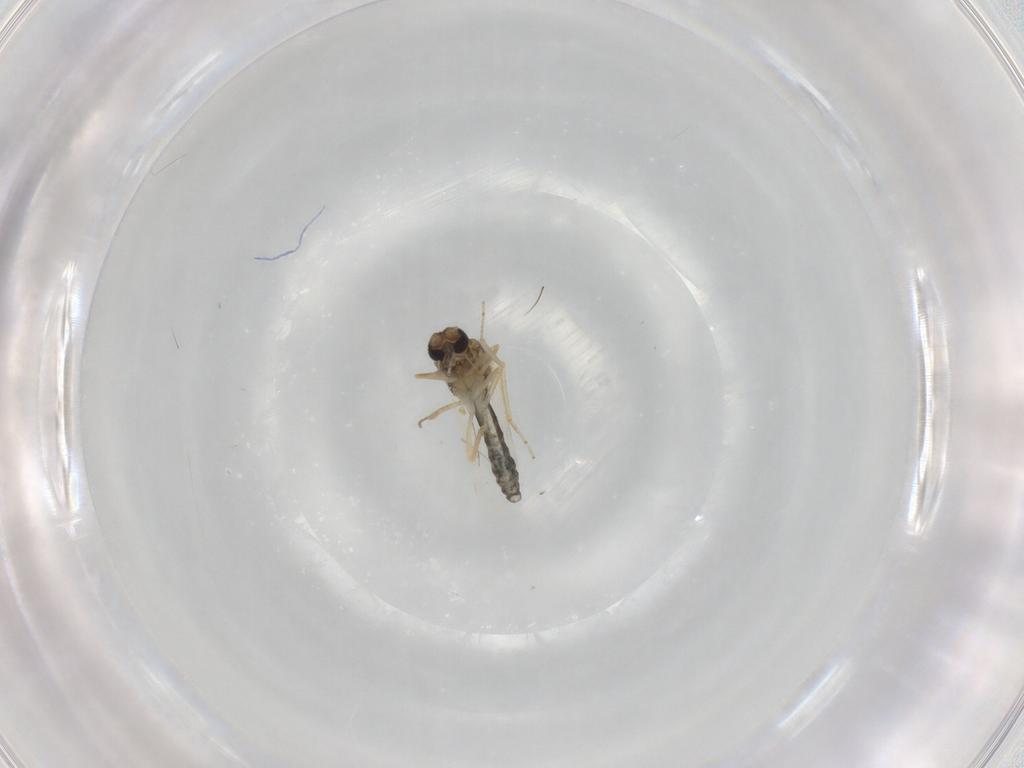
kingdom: Animalia
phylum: Arthropoda
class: Insecta
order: Diptera
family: Ceratopogonidae
